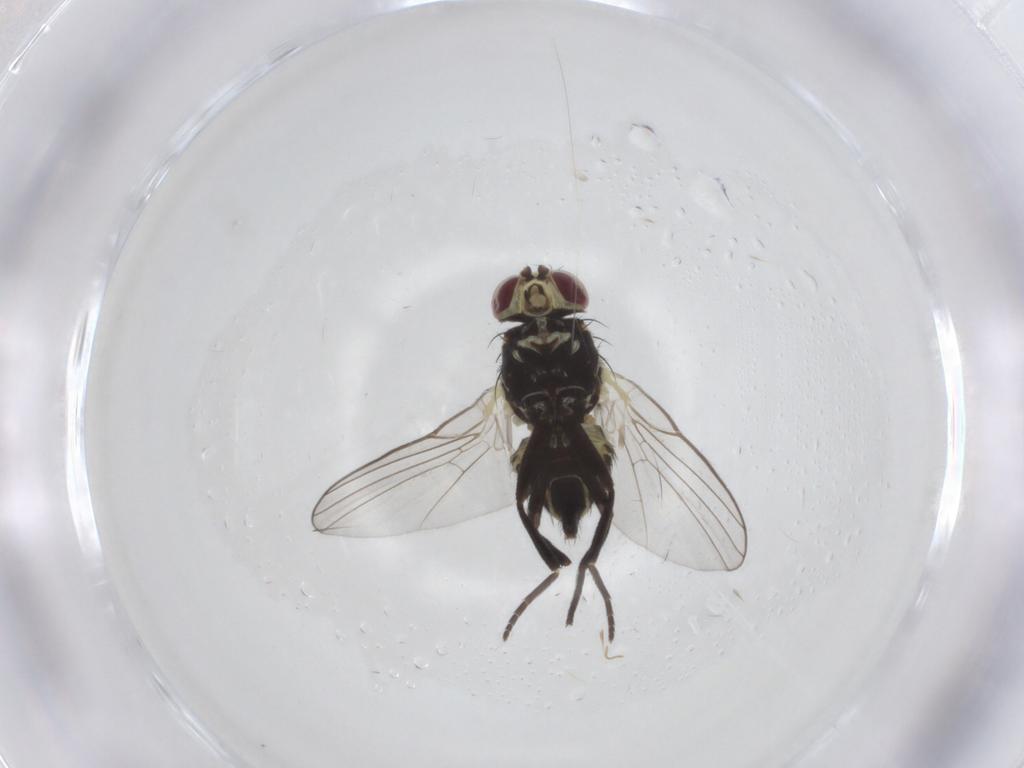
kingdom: Animalia
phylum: Arthropoda
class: Insecta
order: Diptera
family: Agromyzidae
